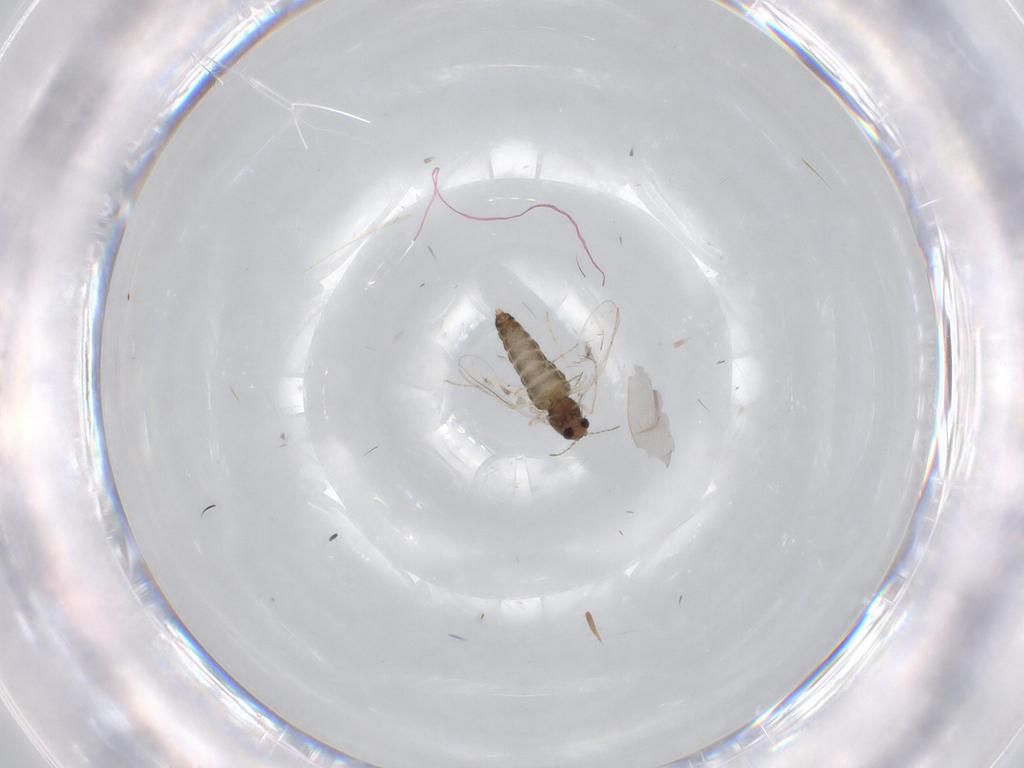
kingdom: Animalia
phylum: Arthropoda
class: Insecta
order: Diptera
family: Chironomidae
